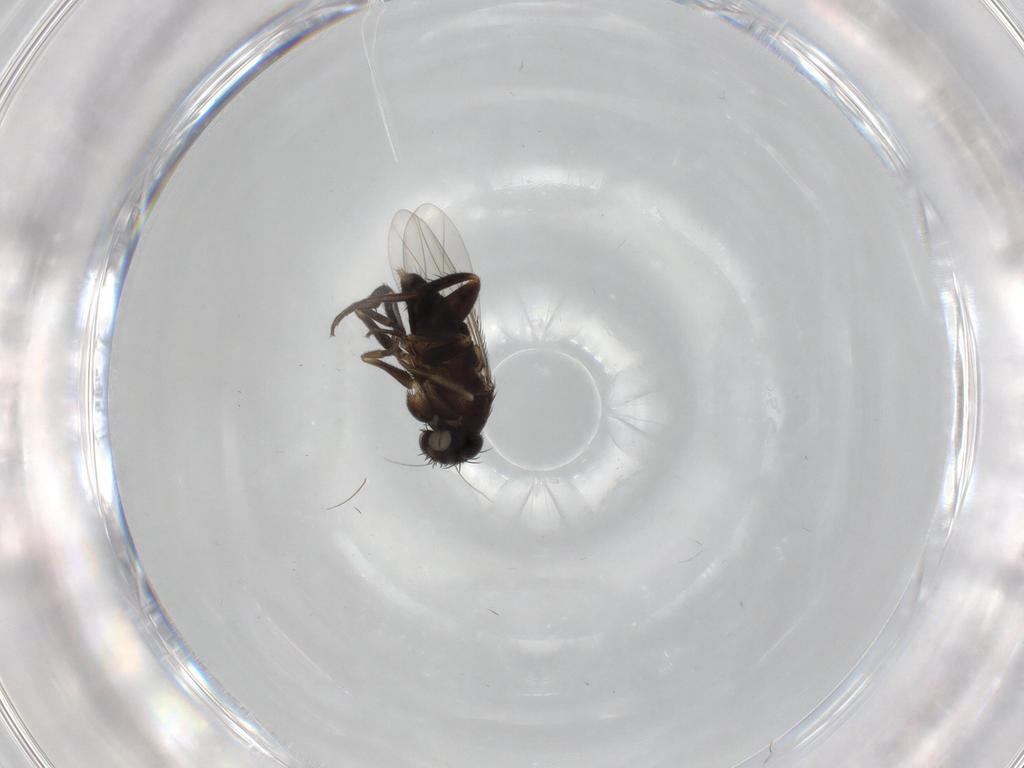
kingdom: Animalia
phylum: Arthropoda
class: Insecta
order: Diptera
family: Phoridae
